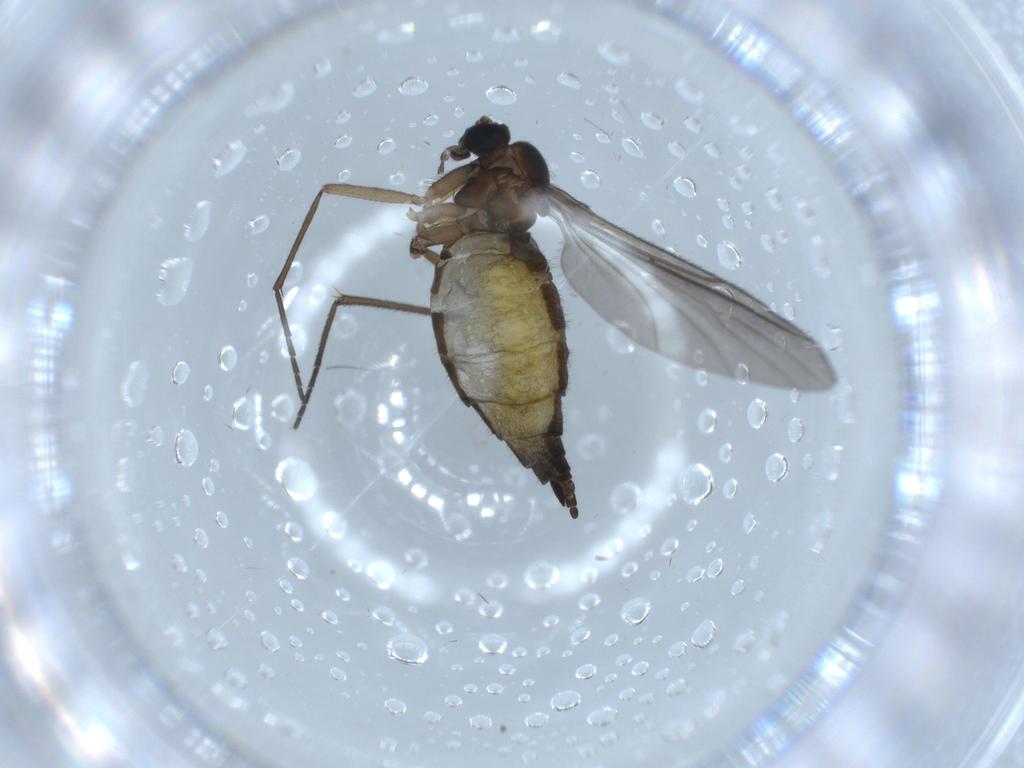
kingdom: Animalia
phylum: Arthropoda
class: Insecta
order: Diptera
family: Sciaridae
